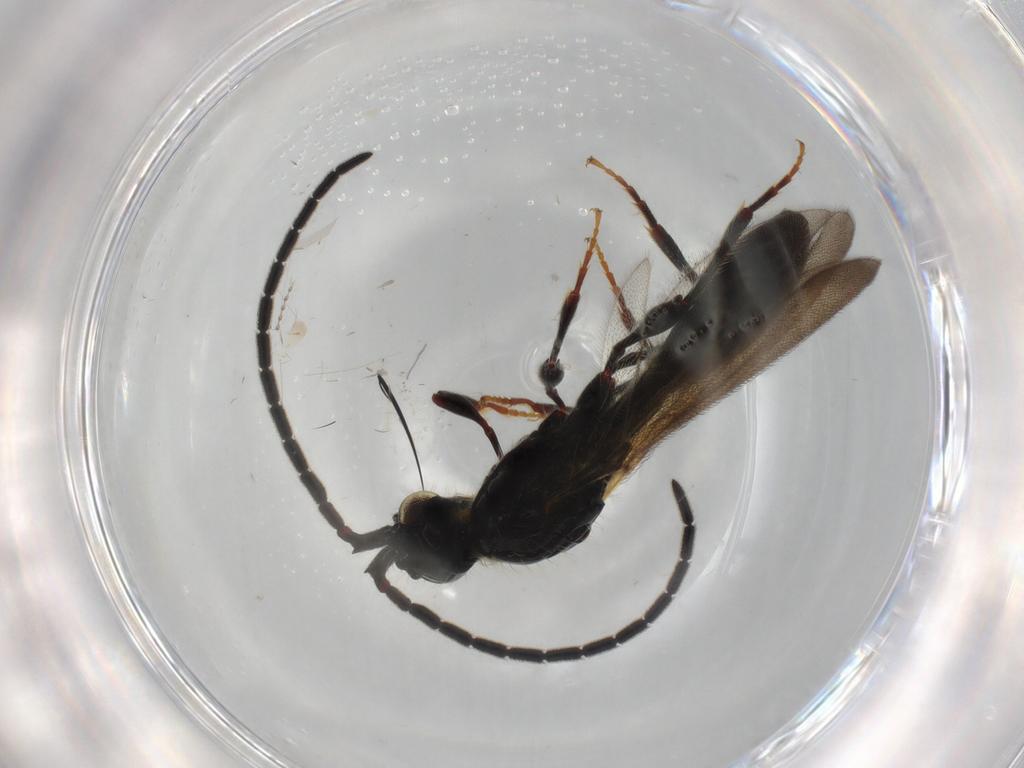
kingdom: Animalia
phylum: Arthropoda
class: Insecta
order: Hymenoptera
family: Diapriidae
